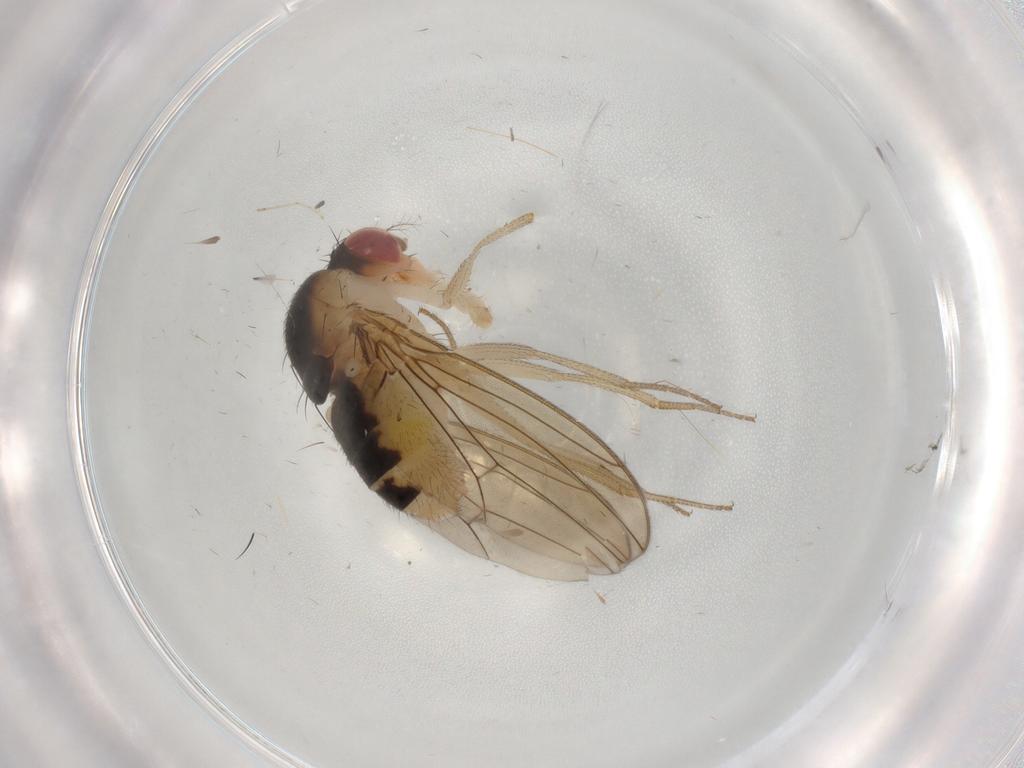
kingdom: Animalia
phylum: Arthropoda
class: Insecta
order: Diptera
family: Drosophilidae
